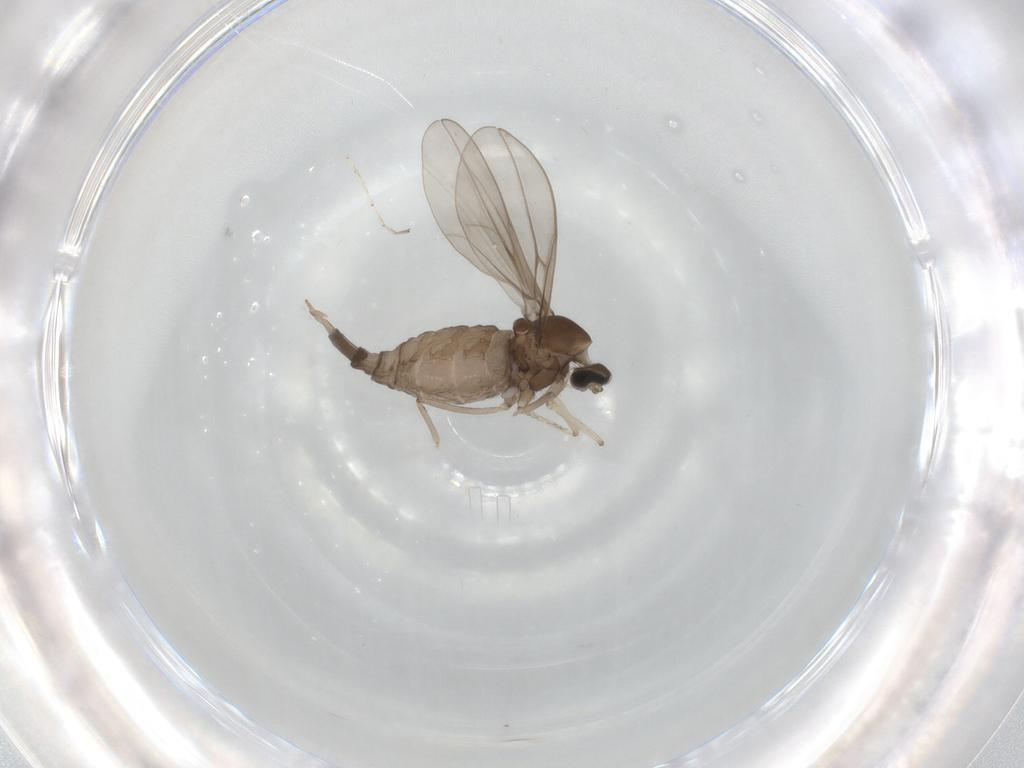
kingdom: Animalia
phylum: Arthropoda
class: Insecta
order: Diptera
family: Cecidomyiidae
